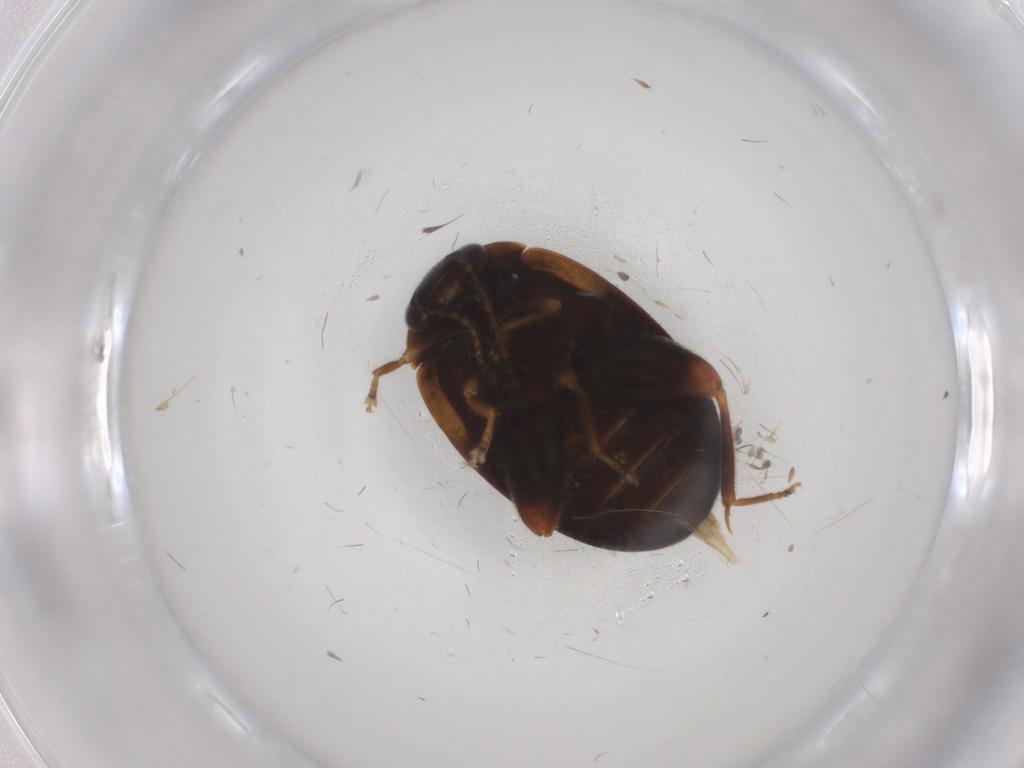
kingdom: Animalia
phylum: Arthropoda
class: Insecta
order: Coleoptera
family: Scirtidae
